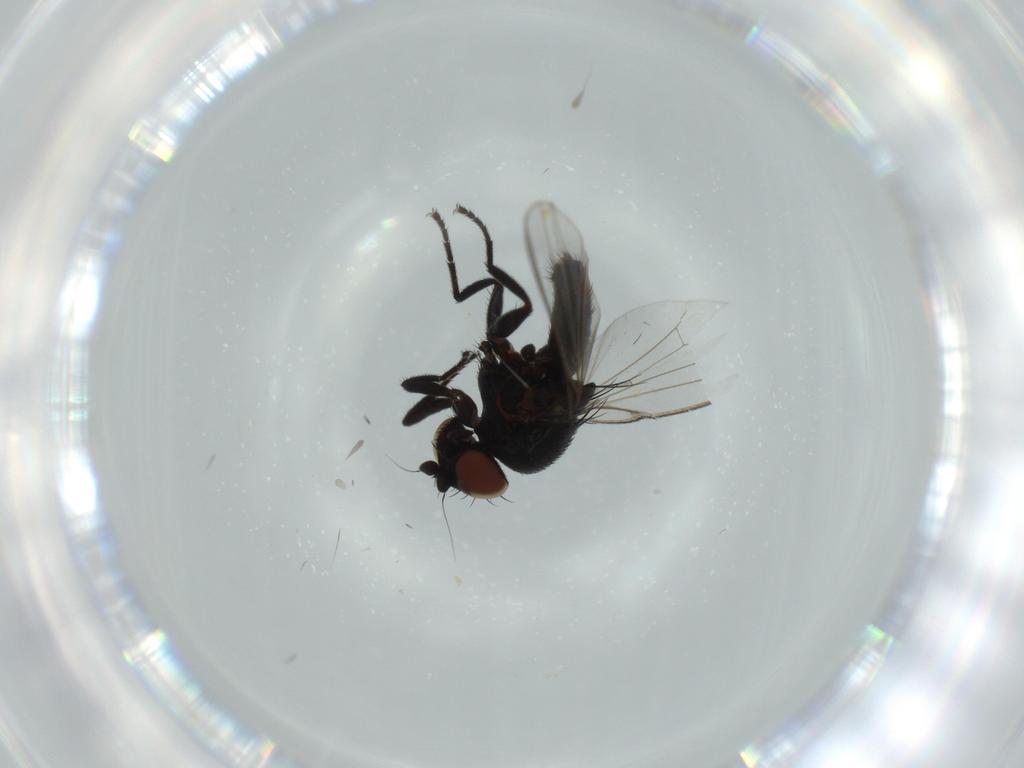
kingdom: Animalia
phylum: Arthropoda
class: Insecta
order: Diptera
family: Milichiidae
